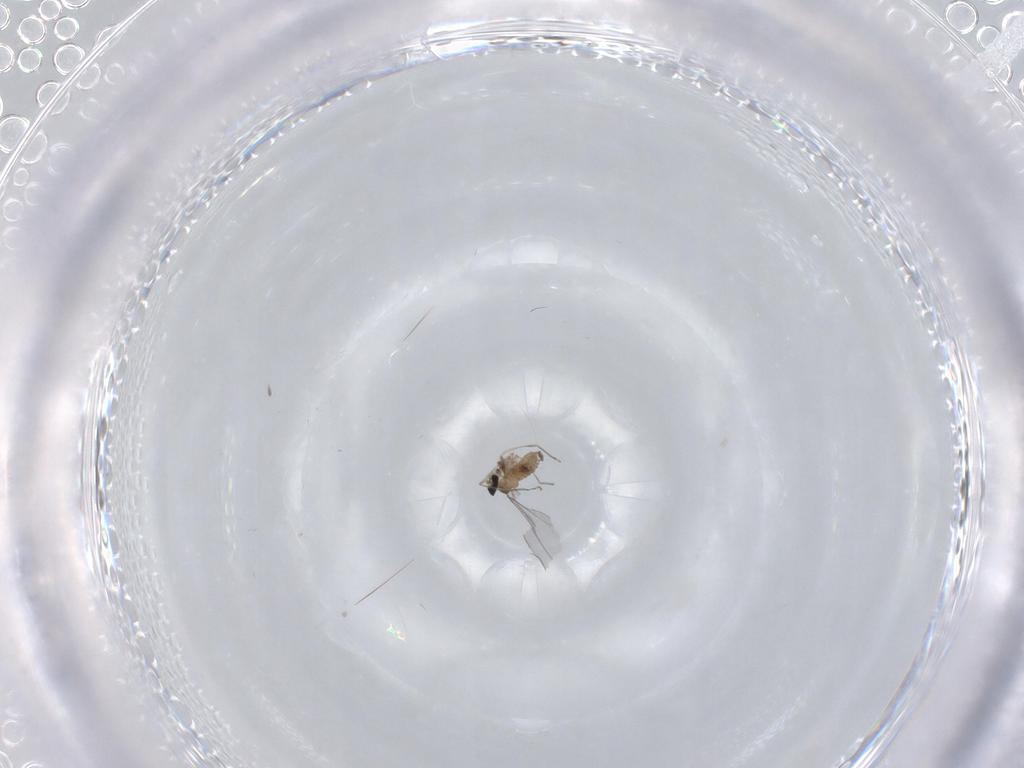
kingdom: Animalia
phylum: Arthropoda
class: Insecta
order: Diptera
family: Cecidomyiidae
